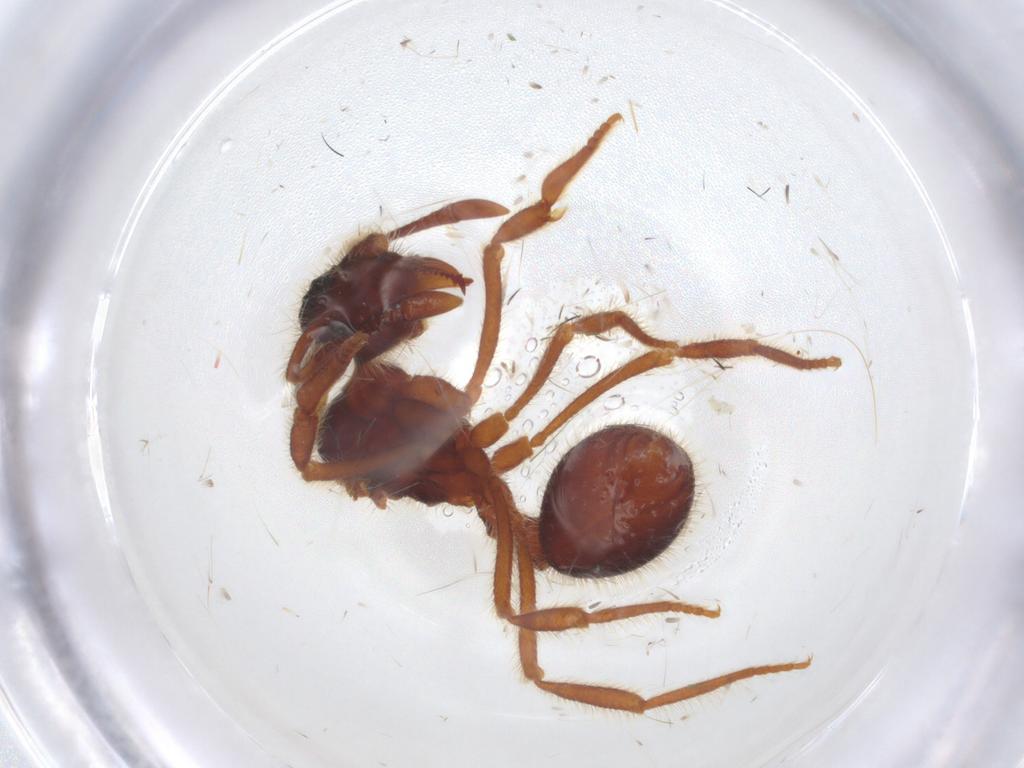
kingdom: Animalia
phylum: Arthropoda
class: Insecta
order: Hymenoptera
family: Formicidae
